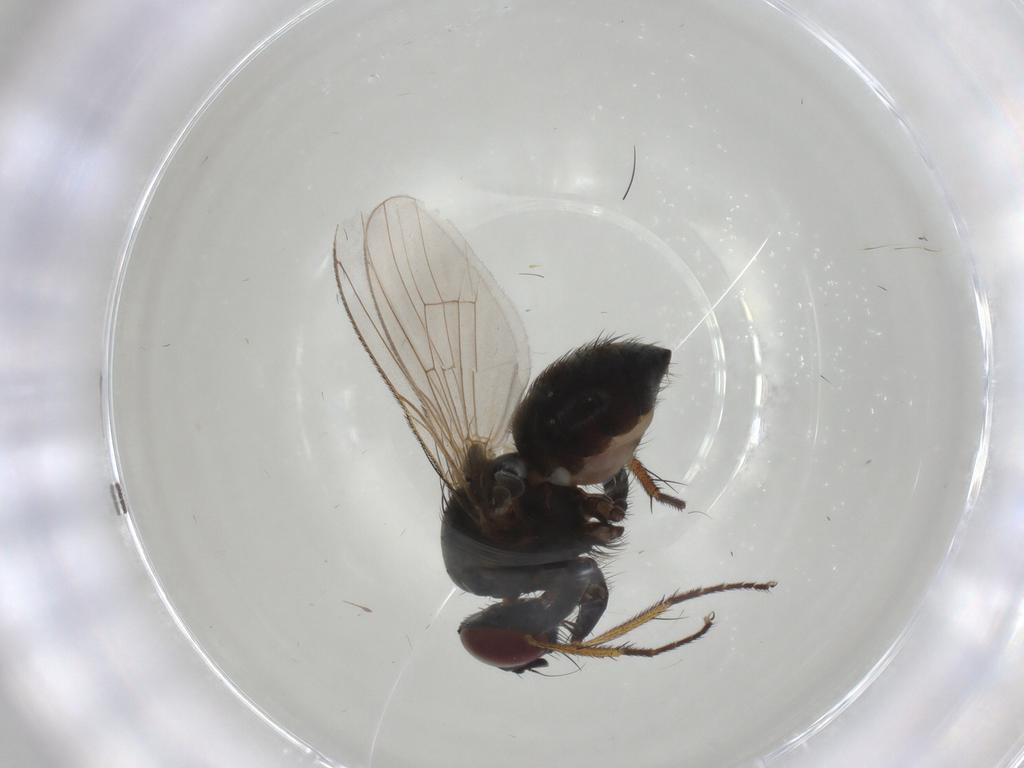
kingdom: Animalia
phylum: Arthropoda
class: Insecta
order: Diptera
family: Muscidae
